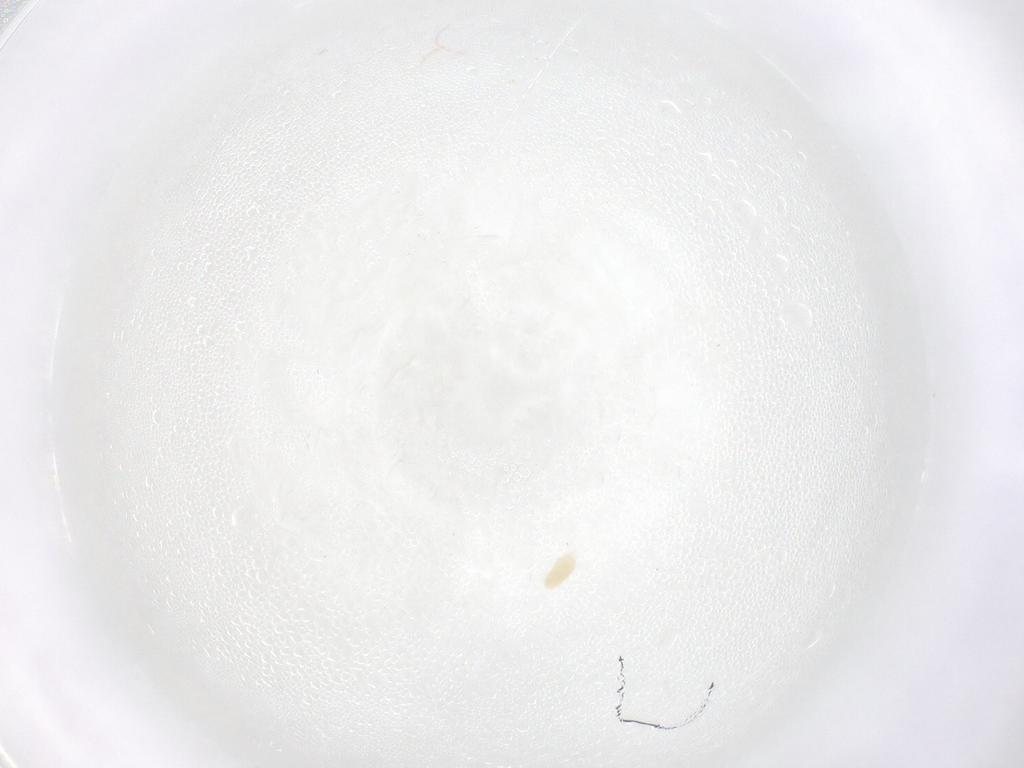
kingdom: Animalia
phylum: Arthropoda
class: Arachnida
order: Trombidiformes
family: Eupodidae
